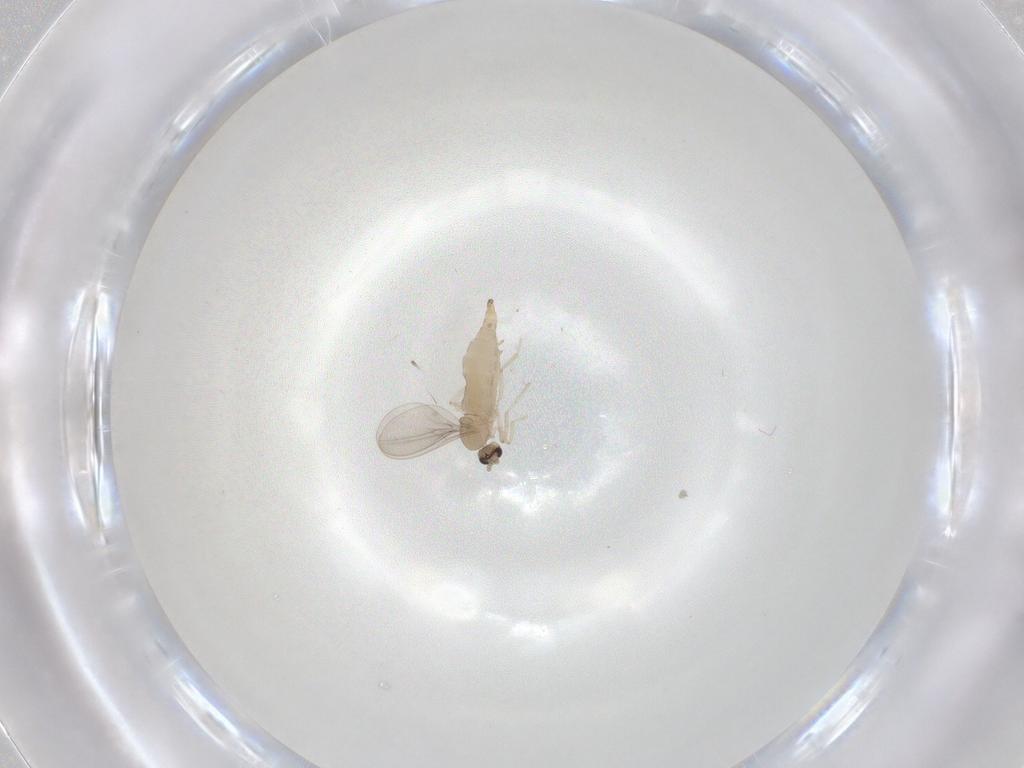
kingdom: Animalia
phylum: Arthropoda
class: Insecta
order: Diptera
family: Cecidomyiidae
